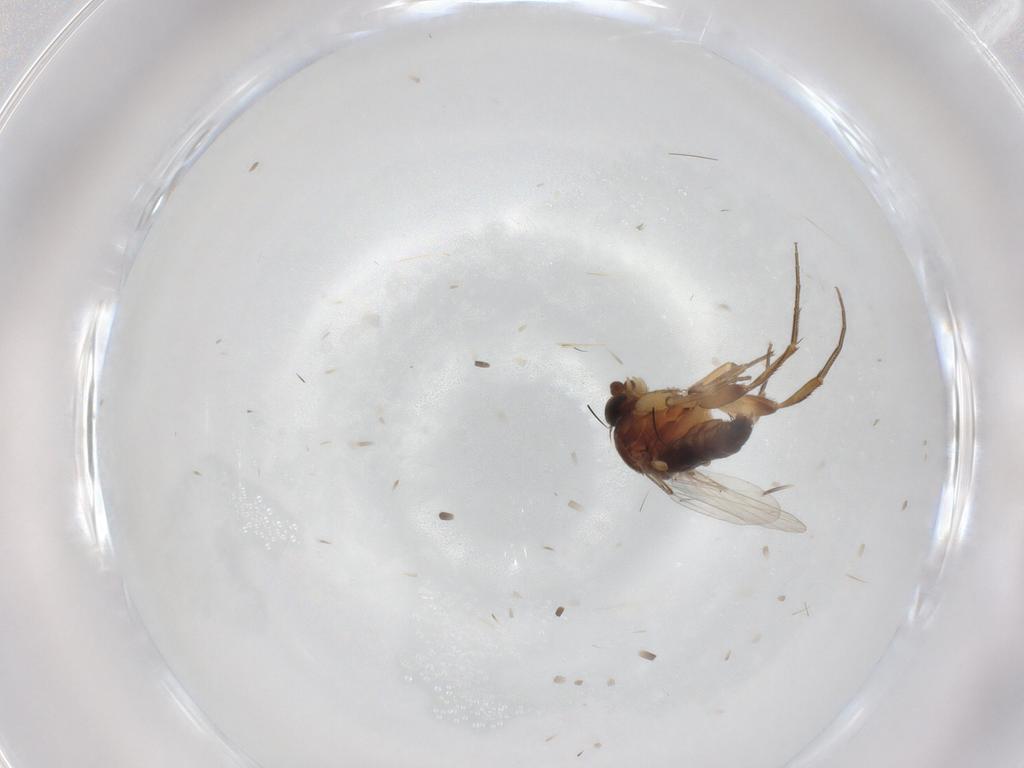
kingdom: Animalia
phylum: Arthropoda
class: Insecta
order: Diptera
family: Phoridae
